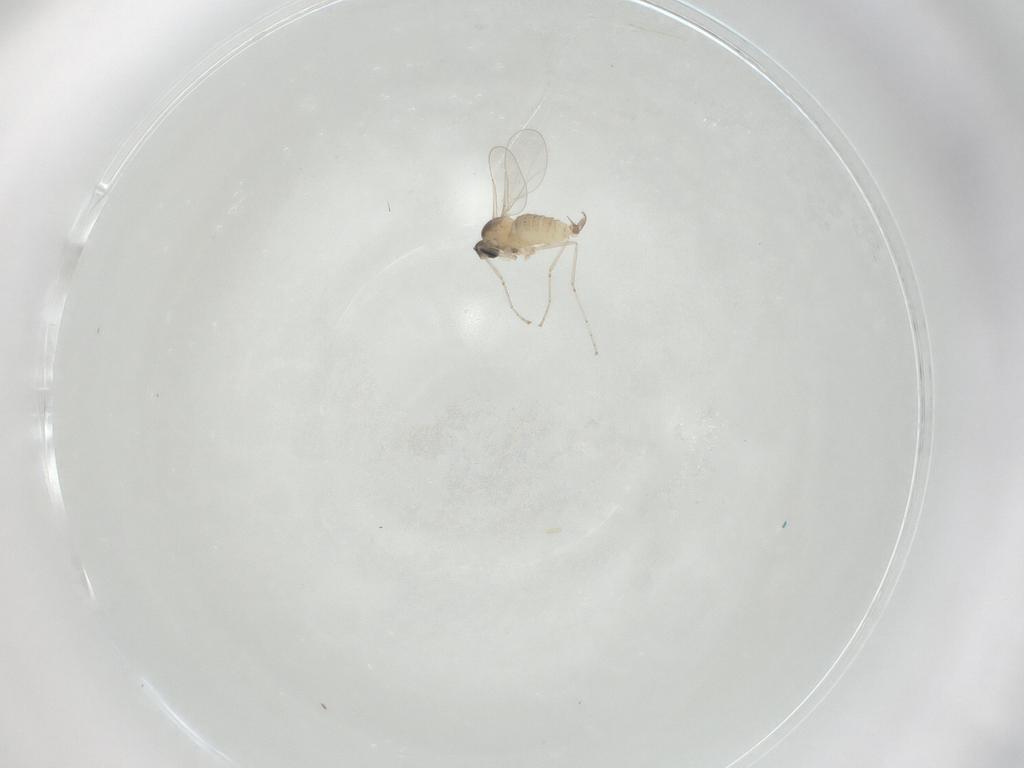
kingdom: Animalia
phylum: Arthropoda
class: Insecta
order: Diptera
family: Cecidomyiidae
